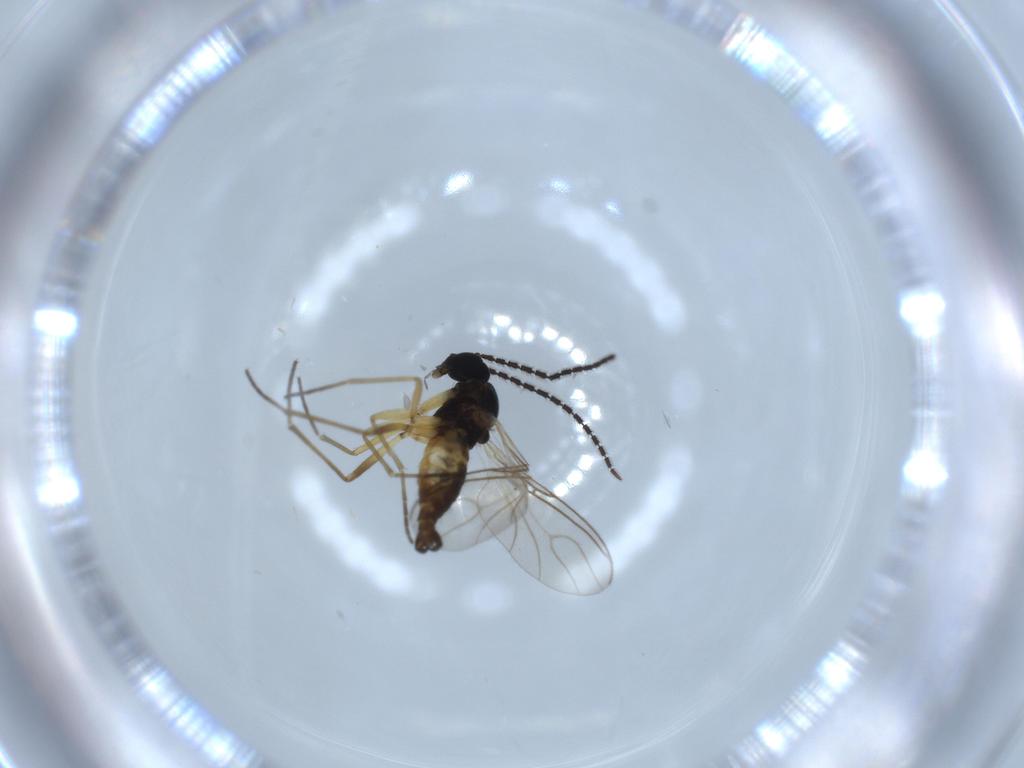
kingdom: Animalia
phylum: Arthropoda
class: Insecta
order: Diptera
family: Sciaridae
